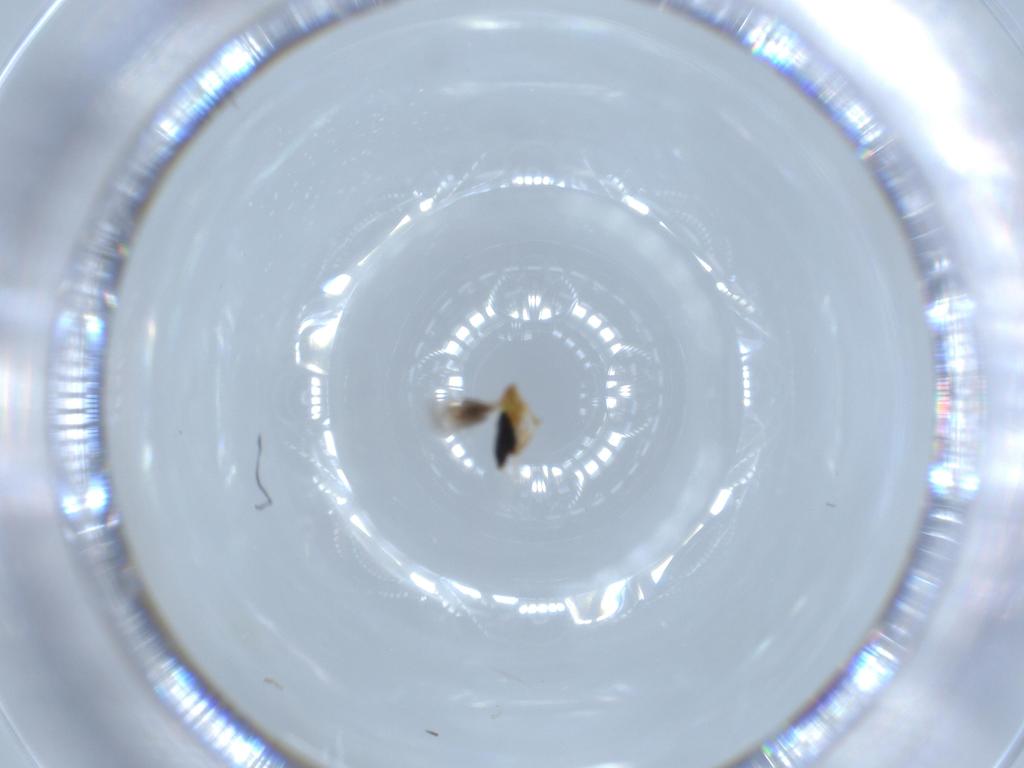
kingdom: Animalia
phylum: Arthropoda
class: Insecta
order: Hymenoptera
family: Signiphoridae
